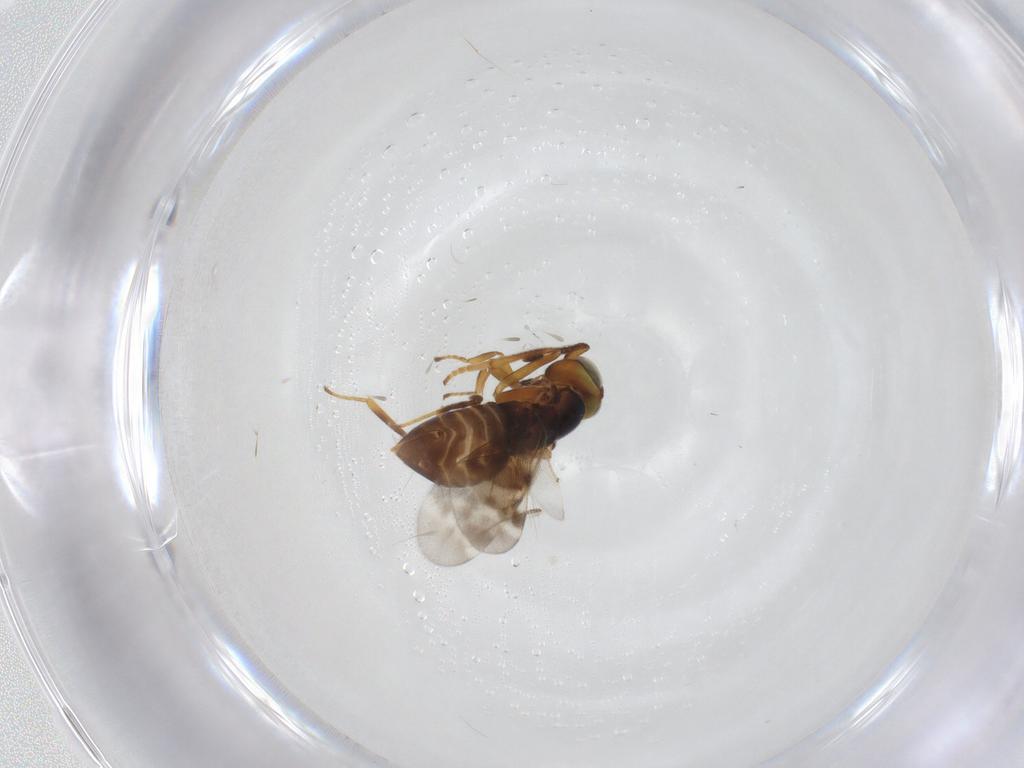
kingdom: Animalia
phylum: Arthropoda
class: Insecta
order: Hymenoptera
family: Encyrtidae
